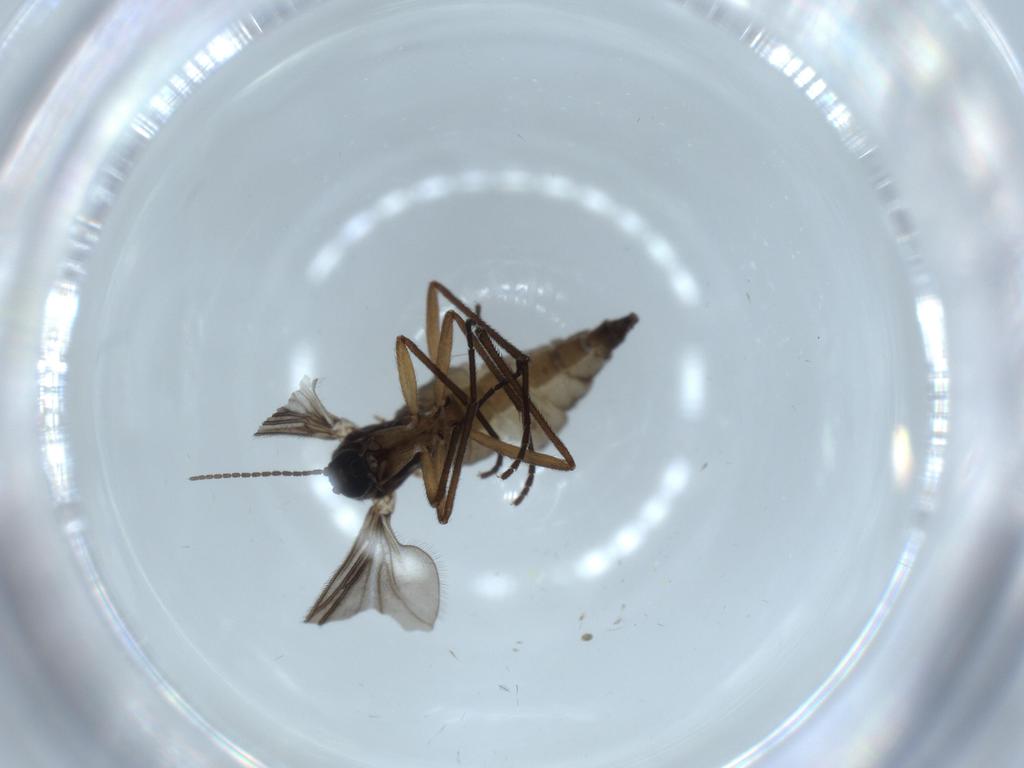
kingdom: Animalia
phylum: Arthropoda
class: Insecta
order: Diptera
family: Sciaridae
